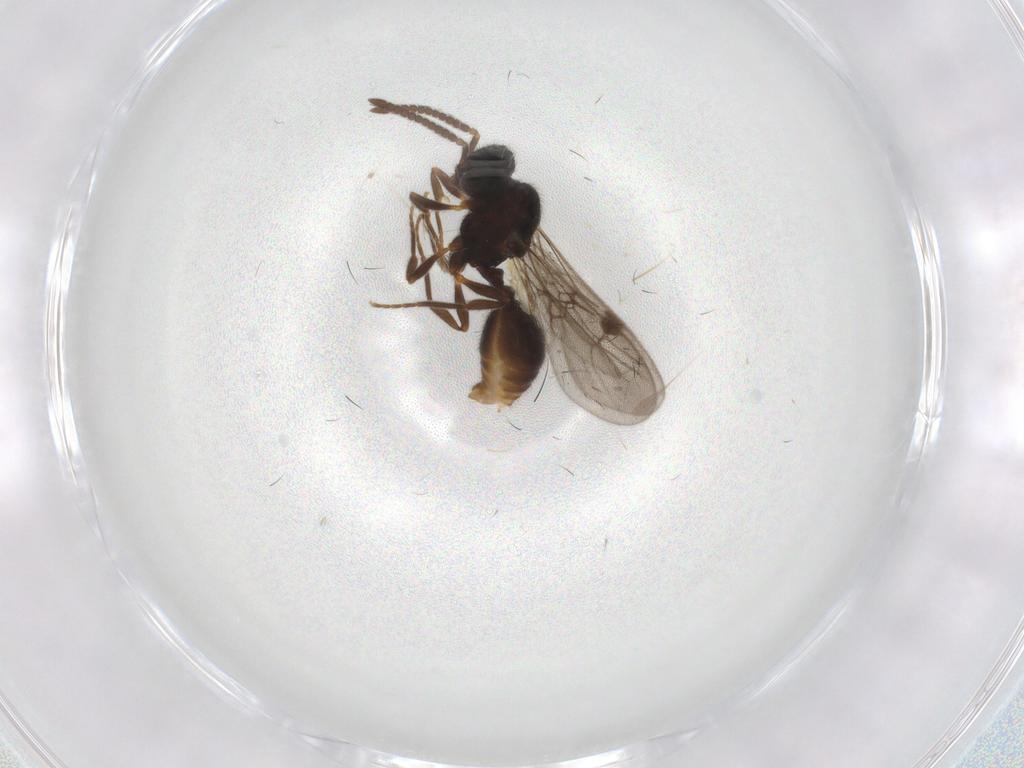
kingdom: Animalia
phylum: Arthropoda
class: Insecta
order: Hymenoptera
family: Formicidae
